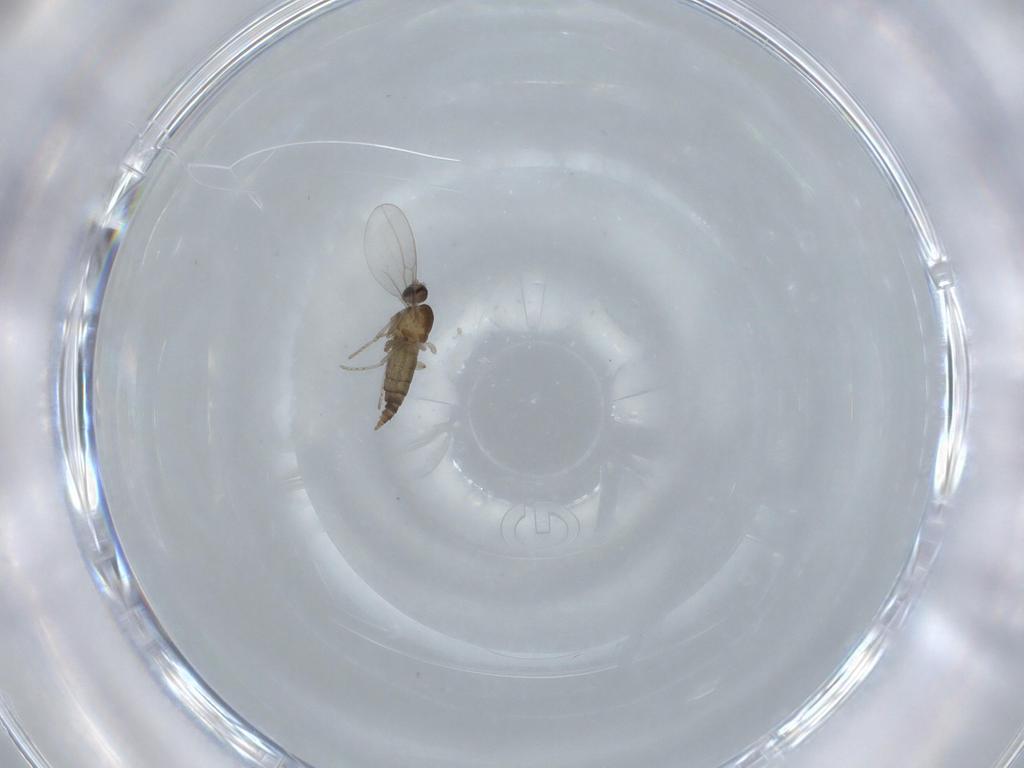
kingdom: Animalia
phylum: Arthropoda
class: Insecta
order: Diptera
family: Cecidomyiidae
